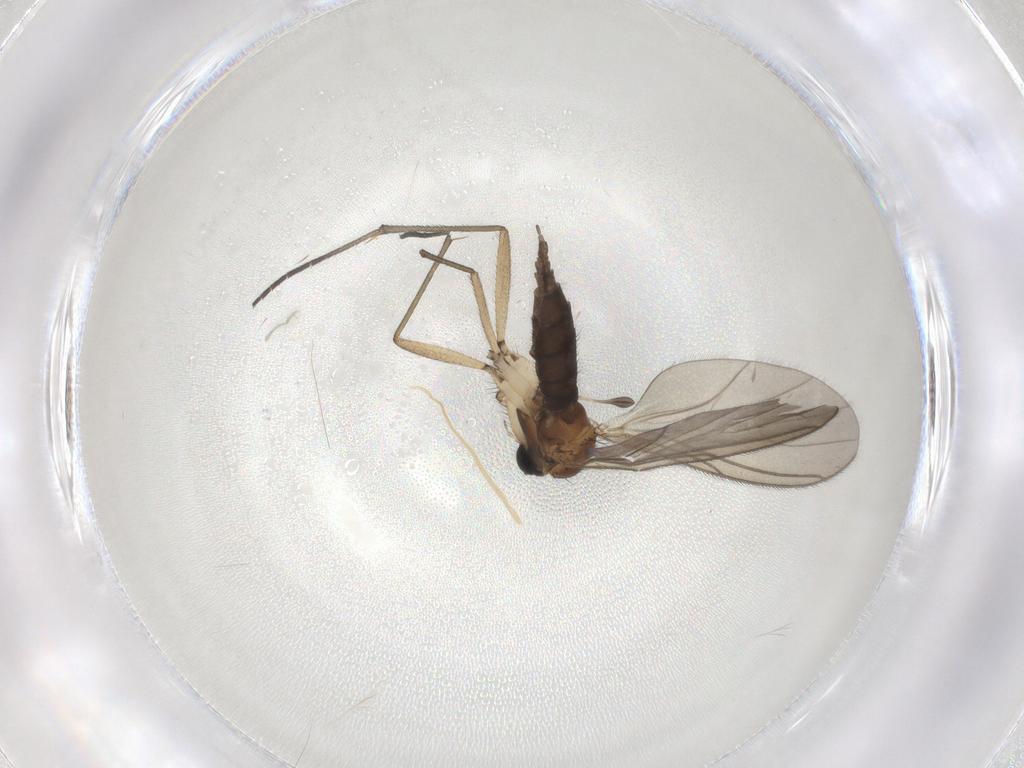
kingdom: Animalia
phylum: Arthropoda
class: Insecta
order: Diptera
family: Sciaridae
